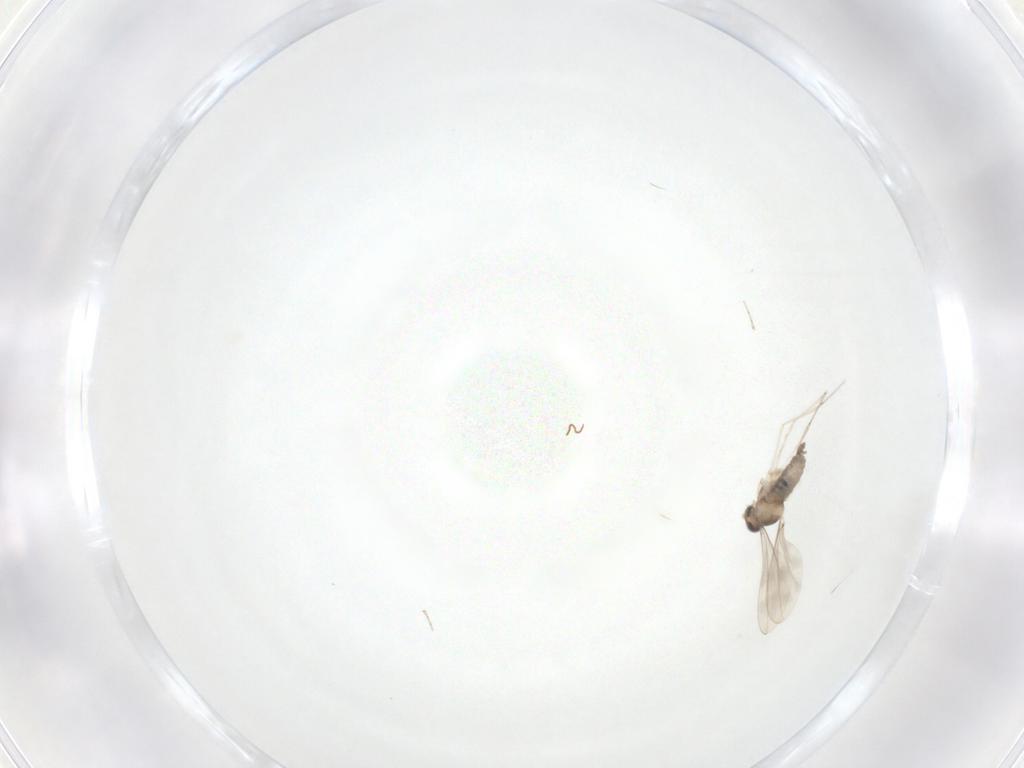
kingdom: Animalia
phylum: Arthropoda
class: Insecta
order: Diptera
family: Cecidomyiidae
